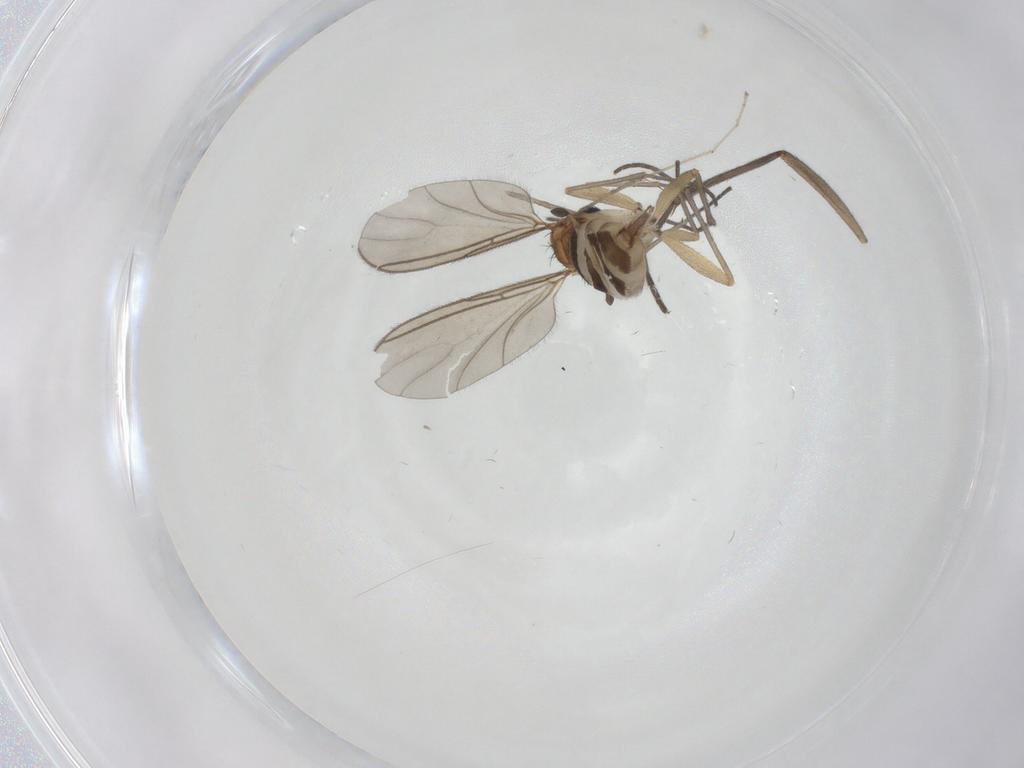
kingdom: Animalia
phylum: Arthropoda
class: Insecta
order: Diptera
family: Sciaridae
